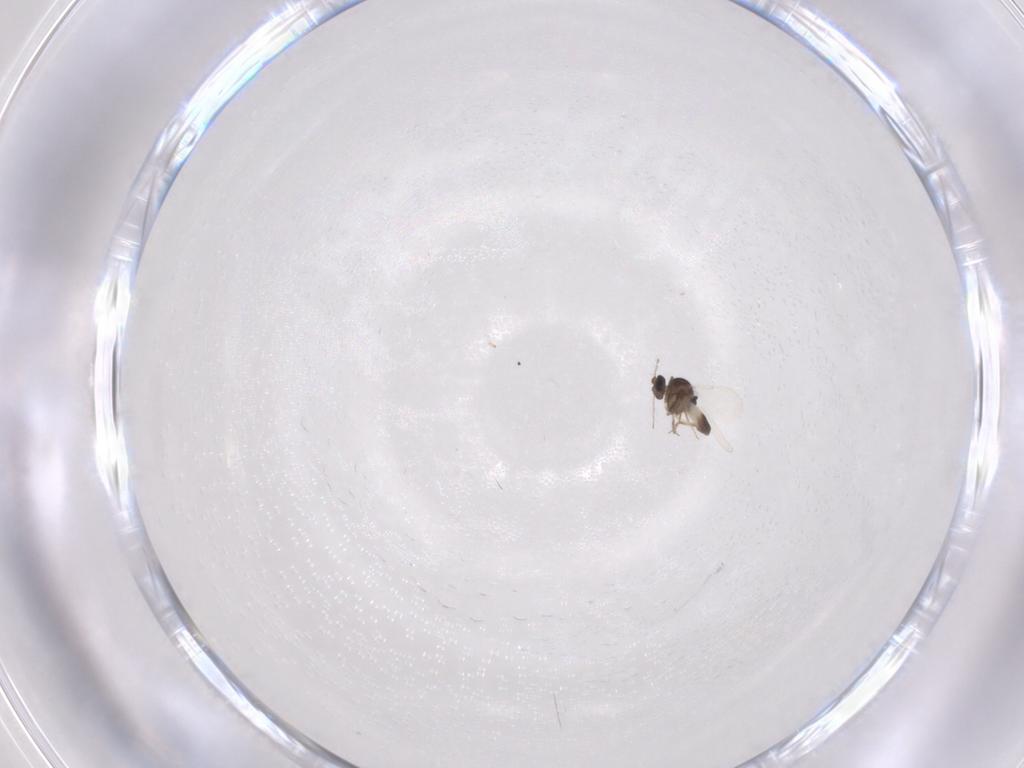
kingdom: Animalia
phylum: Arthropoda
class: Insecta
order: Diptera
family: Ceratopogonidae
